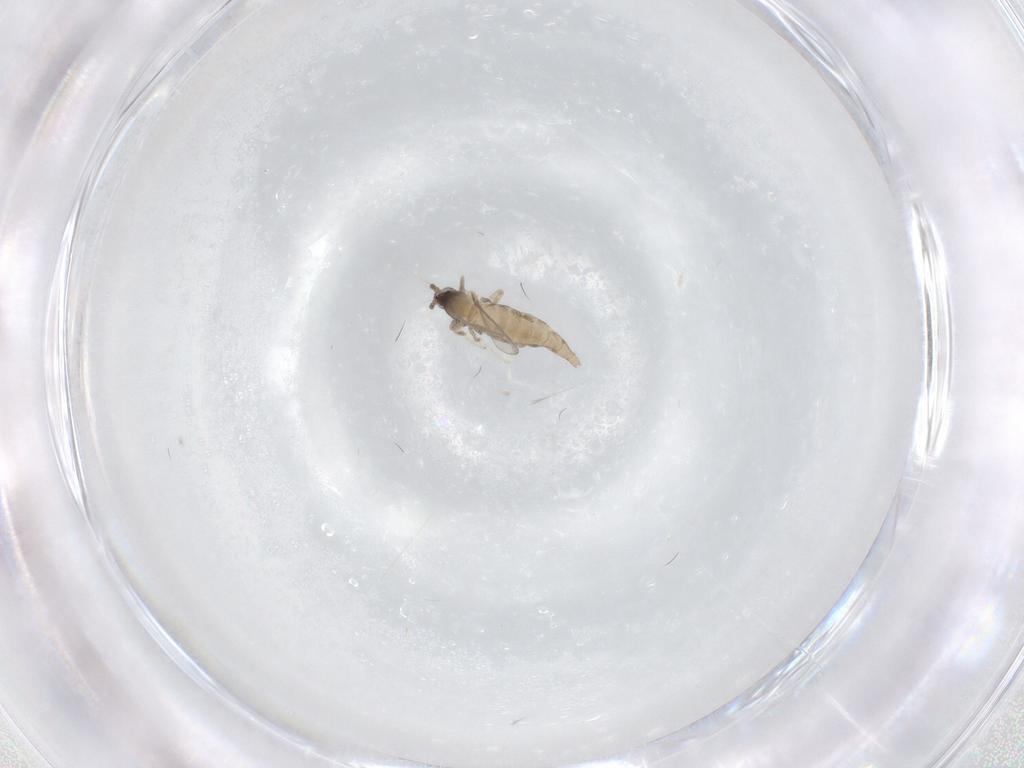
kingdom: Animalia
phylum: Arthropoda
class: Insecta
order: Diptera
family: Cecidomyiidae
